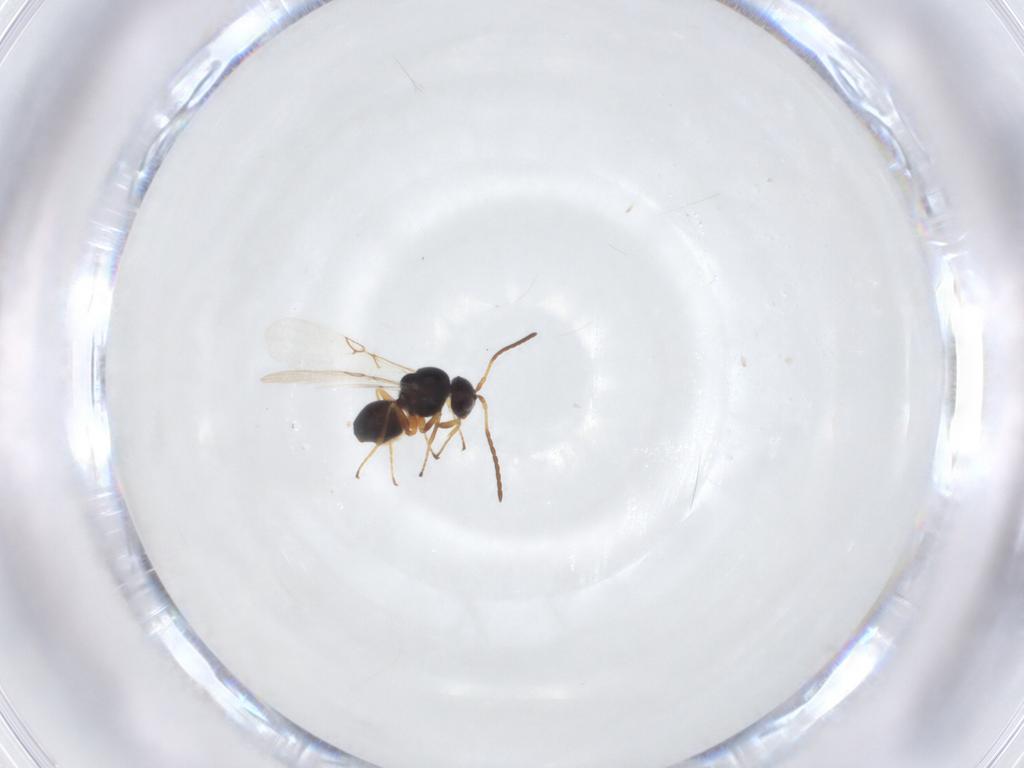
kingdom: Animalia
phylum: Arthropoda
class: Insecta
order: Hymenoptera
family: Figitidae
